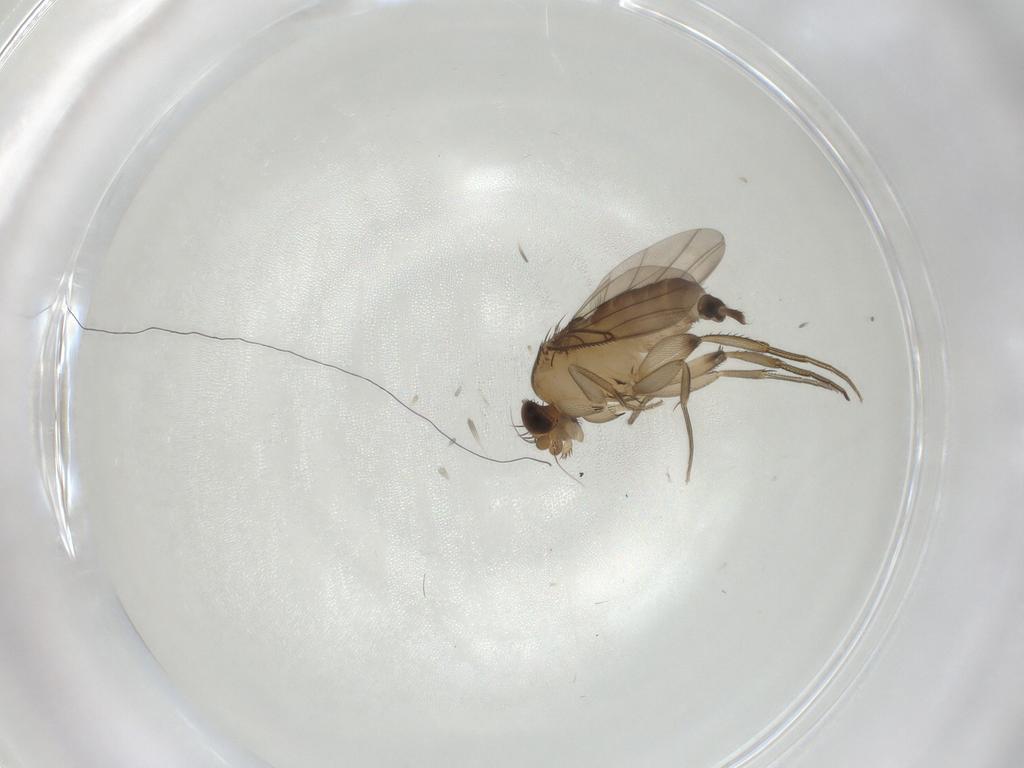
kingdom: Animalia
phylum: Arthropoda
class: Insecta
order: Diptera
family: Phoridae
